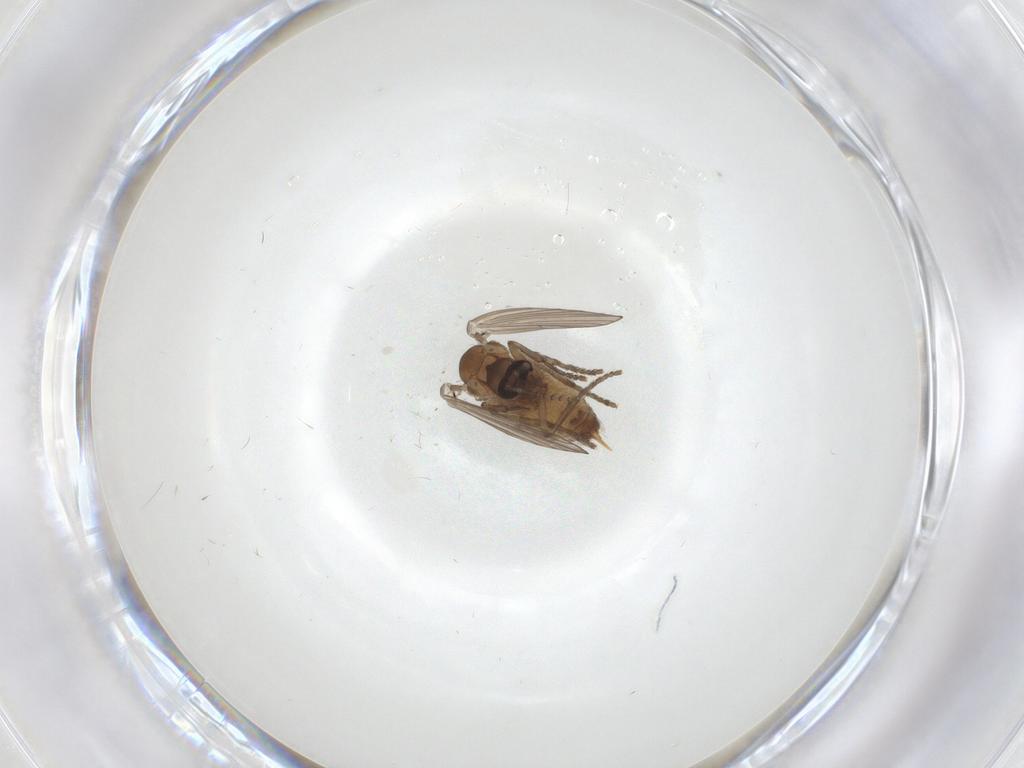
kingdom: Animalia
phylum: Arthropoda
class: Insecta
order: Diptera
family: Psychodidae
